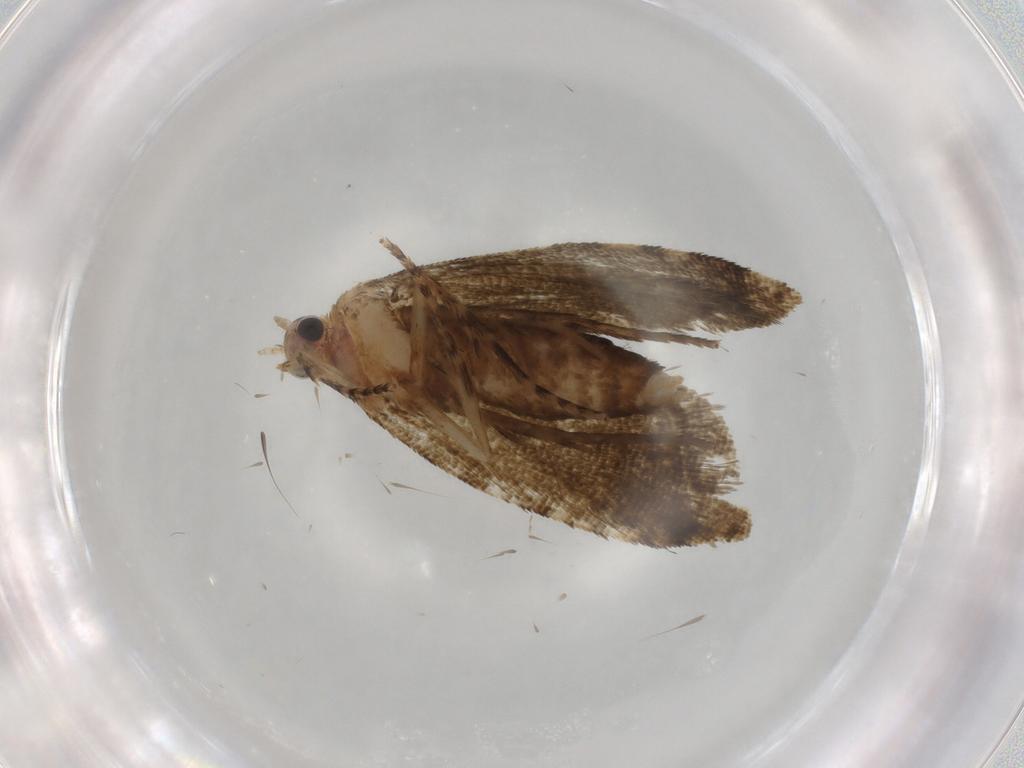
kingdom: Animalia
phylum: Arthropoda
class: Insecta
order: Lepidoptera
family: Tortricidae
